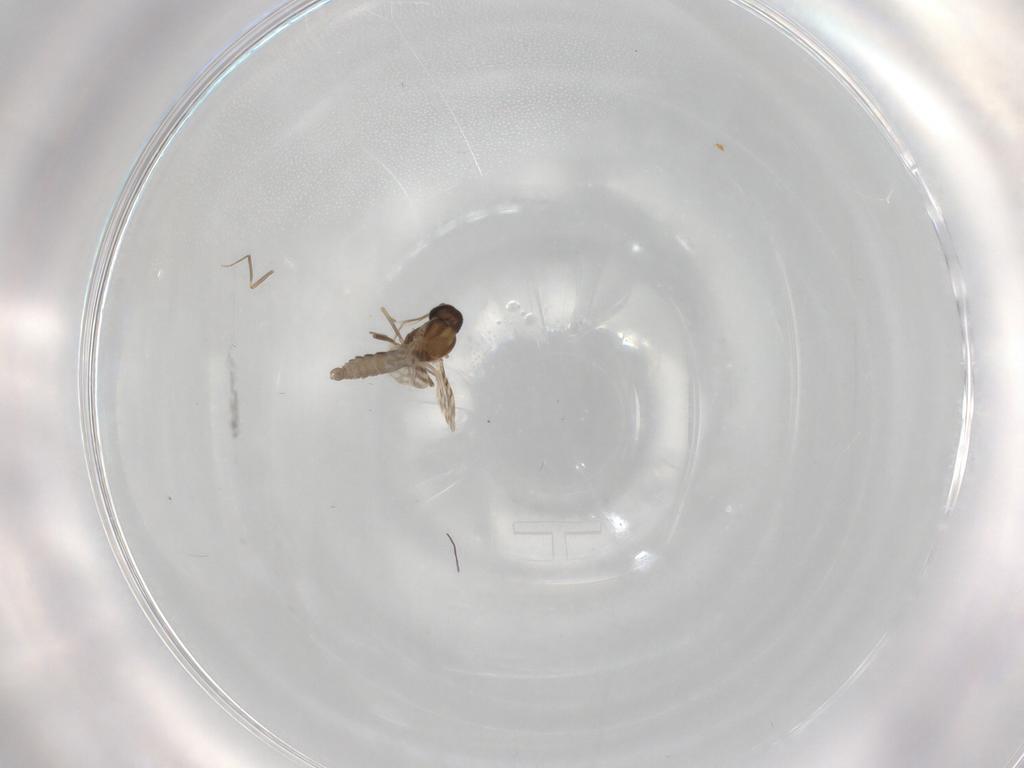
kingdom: Animalia
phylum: Arthropoda
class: Insecta
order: Diptera
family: Ceratopogonidae
